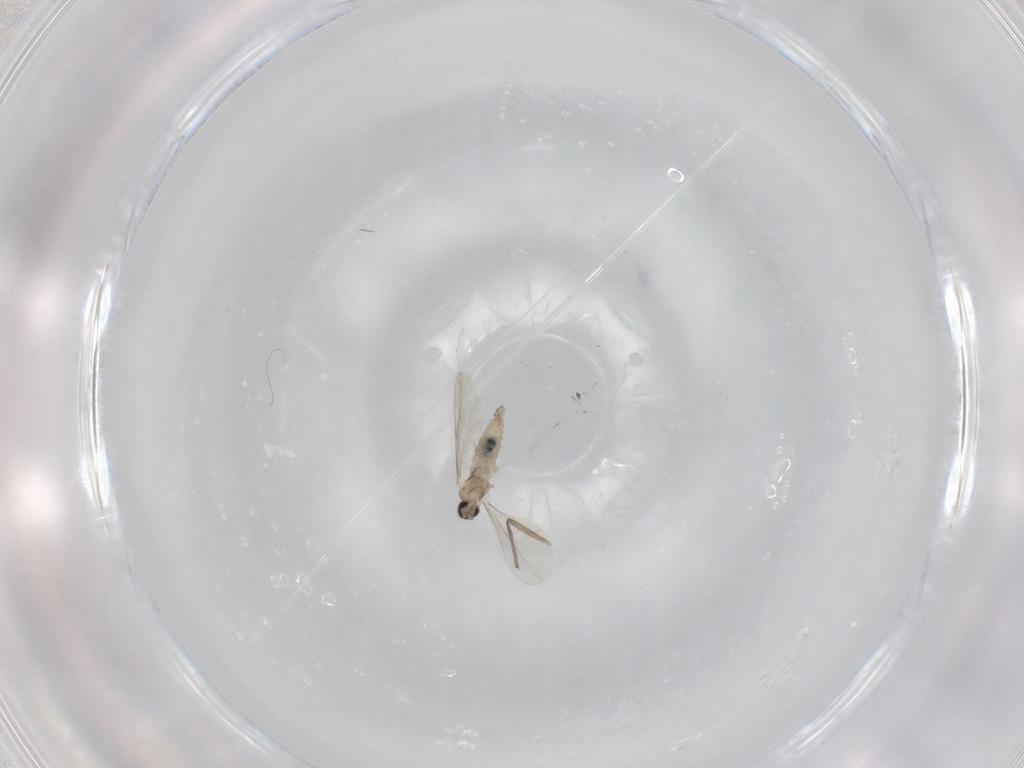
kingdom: Animalia
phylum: Arthropoda
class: Insecta
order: Diptera
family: Chironomidae
